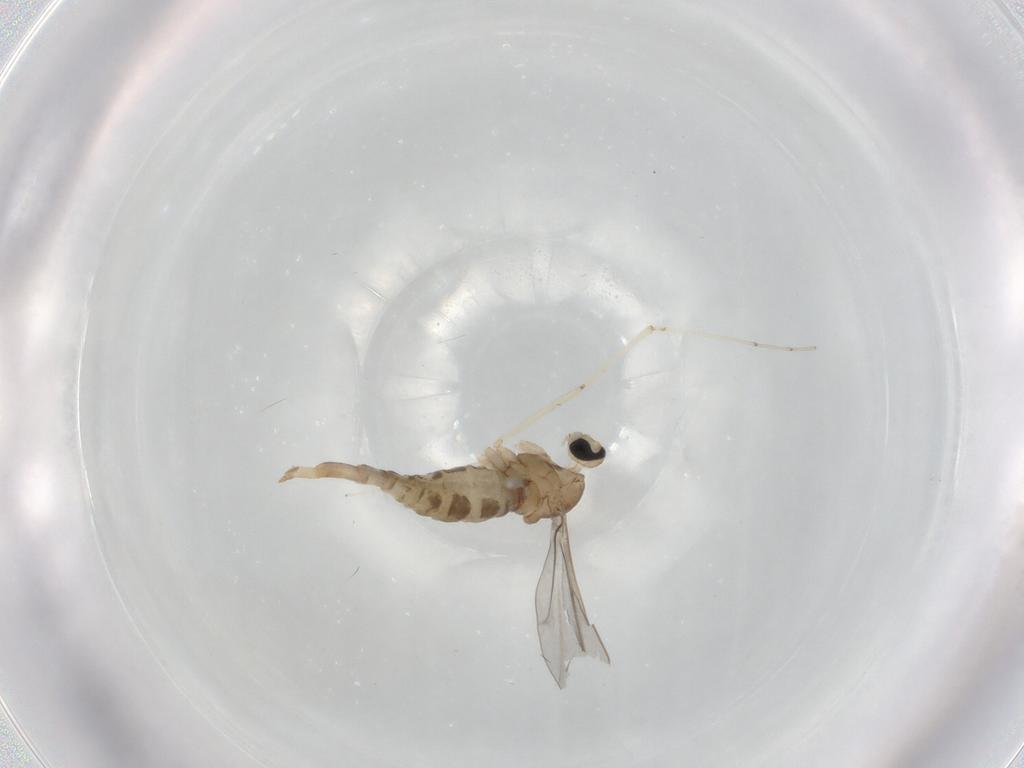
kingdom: Animalia
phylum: Arthropoda
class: Insecta
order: Diptera
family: Cecidomyiidae
